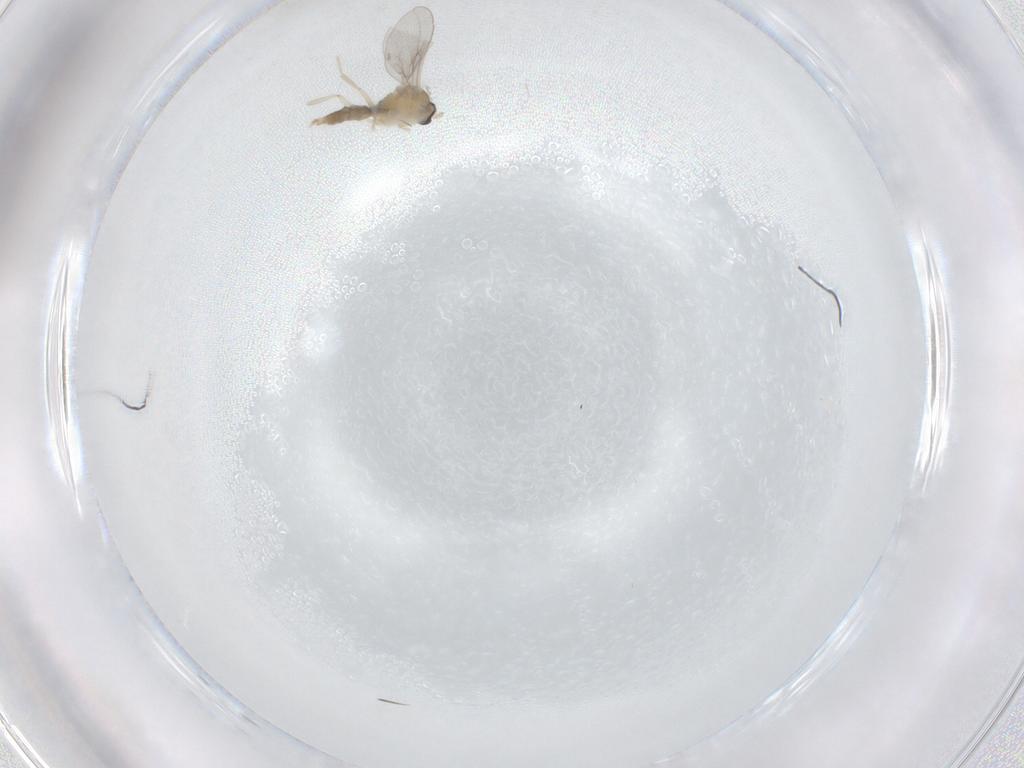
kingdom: Animalia
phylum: Arthropoda
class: Insecta
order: Diptera
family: Cecidomyiidae
